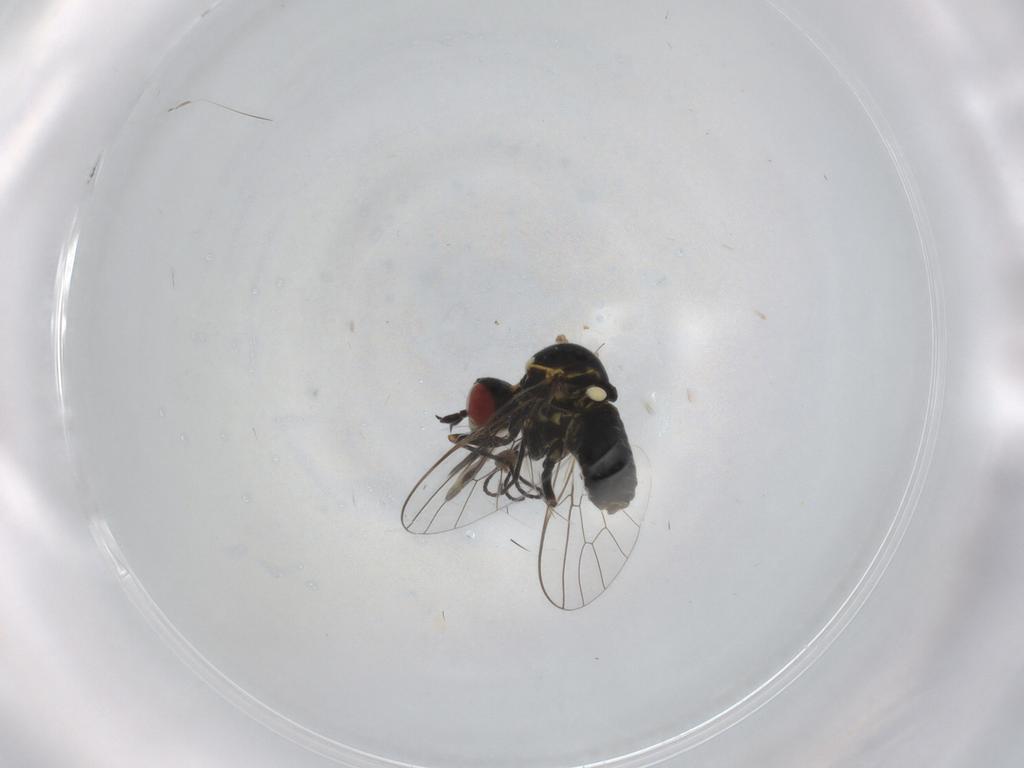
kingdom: Animalia
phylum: Arthropoda
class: Insecta
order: Diptera
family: Mythicomyiidae
